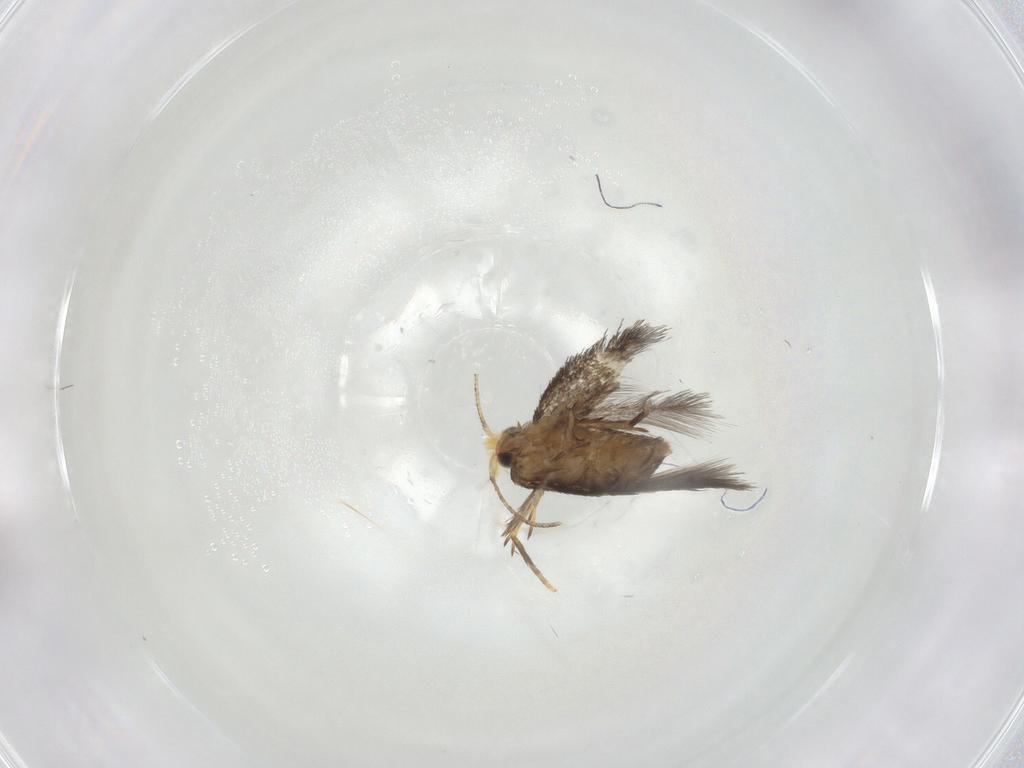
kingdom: Animalia
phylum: Arthropoda
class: Insecta
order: Lepidoptera
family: Nepticulidae
